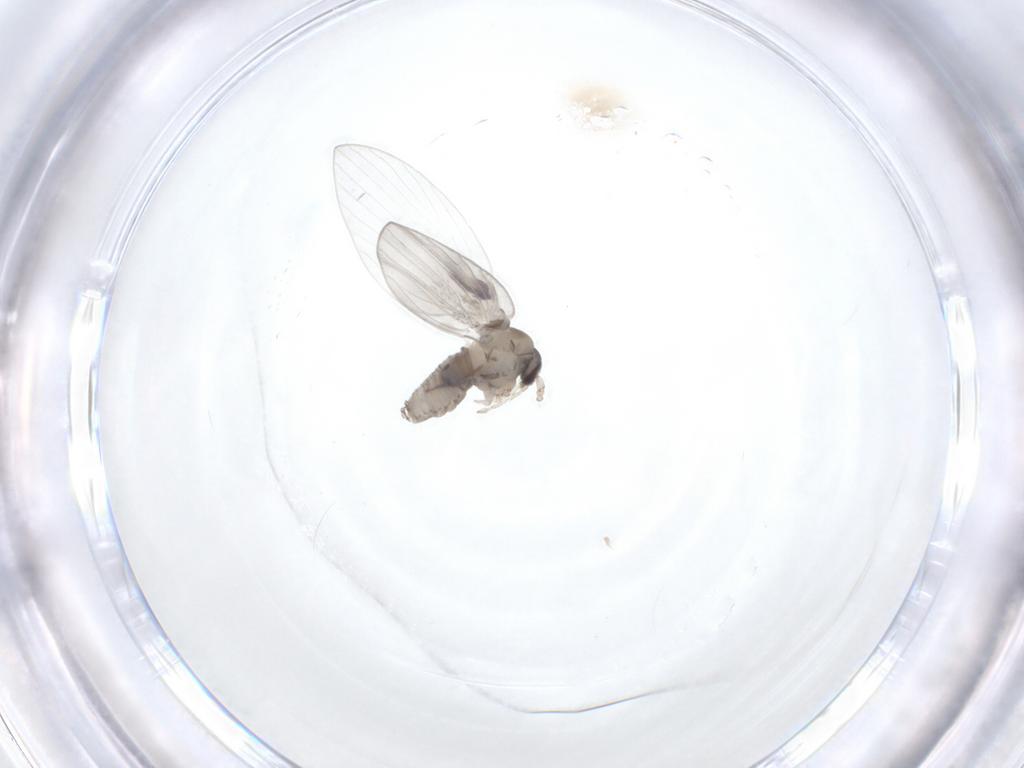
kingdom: Animalia
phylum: Arthropoda
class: Insecta
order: Diptera
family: Psychodidae
